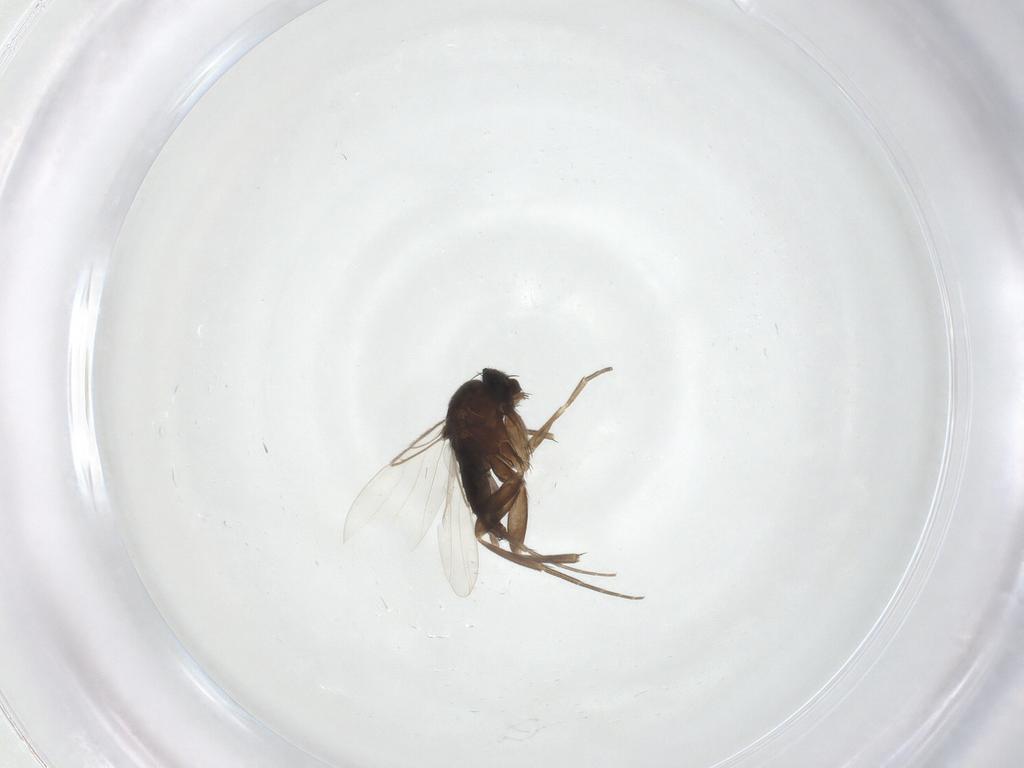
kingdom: Animalia
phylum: Arthropoda
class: Insecta
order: Diptera
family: Phoridae
